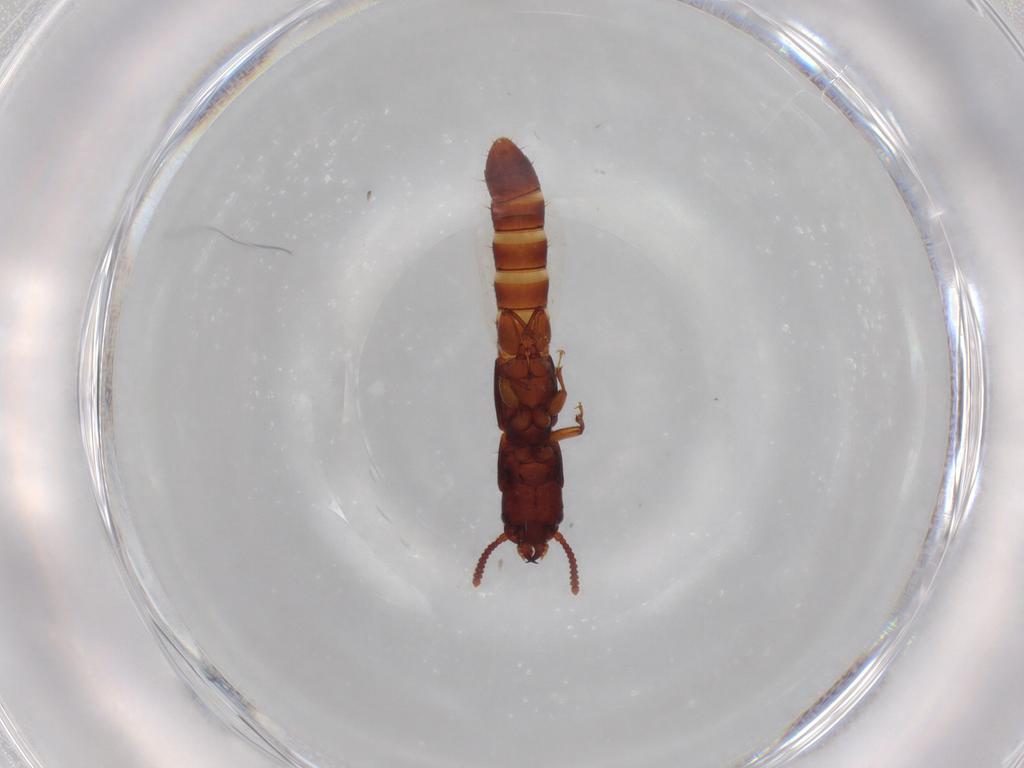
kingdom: Animalia
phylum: Arthropoda
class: Insecta
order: Coleoptera
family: Staphylinidae
